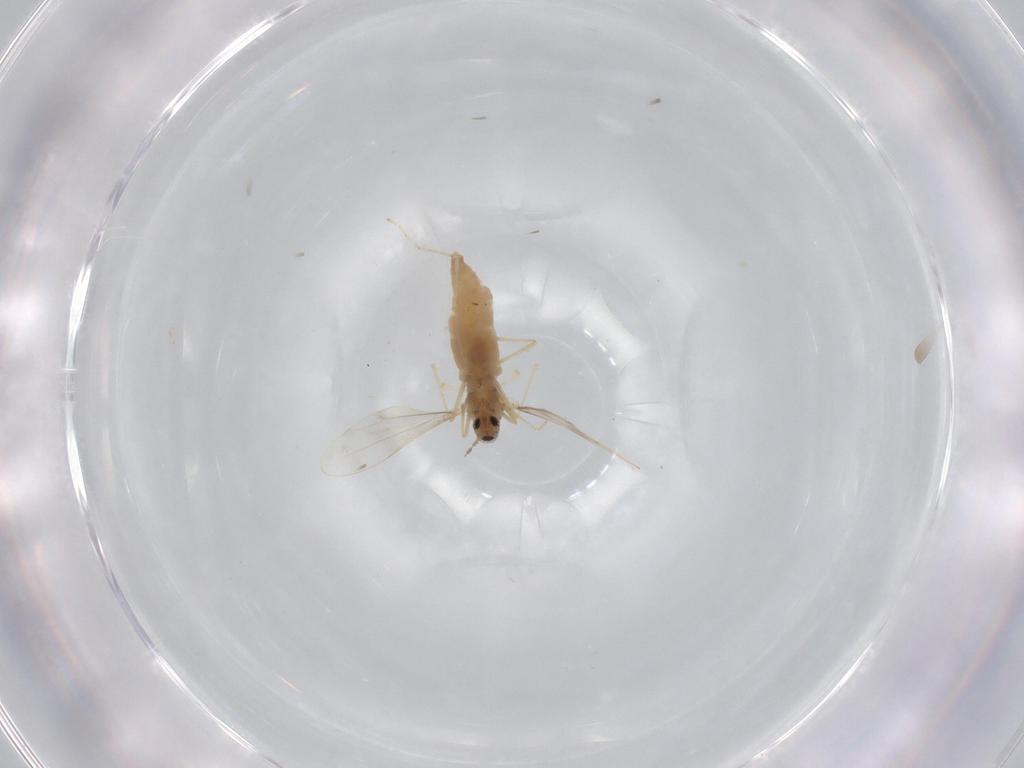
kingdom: Animalia
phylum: Arthropoda
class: Insecta
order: Diptera
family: Cecidomyiidae
